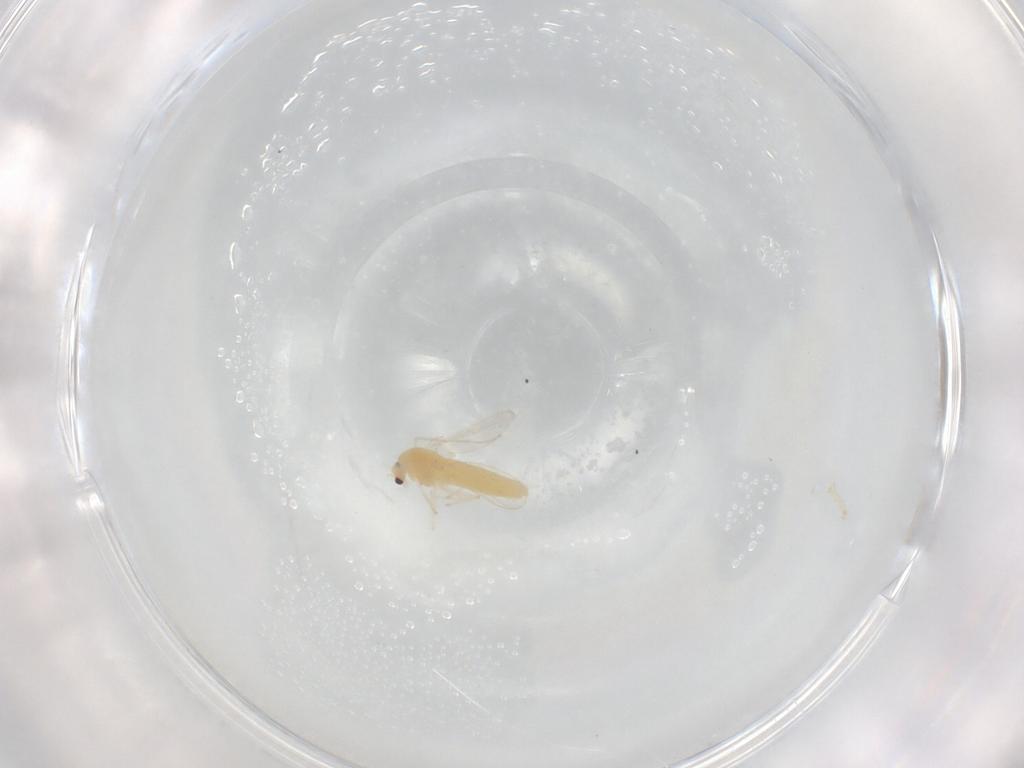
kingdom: Animalia
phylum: Arthropoda
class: Insecta
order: Diptera
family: Chironomidae
